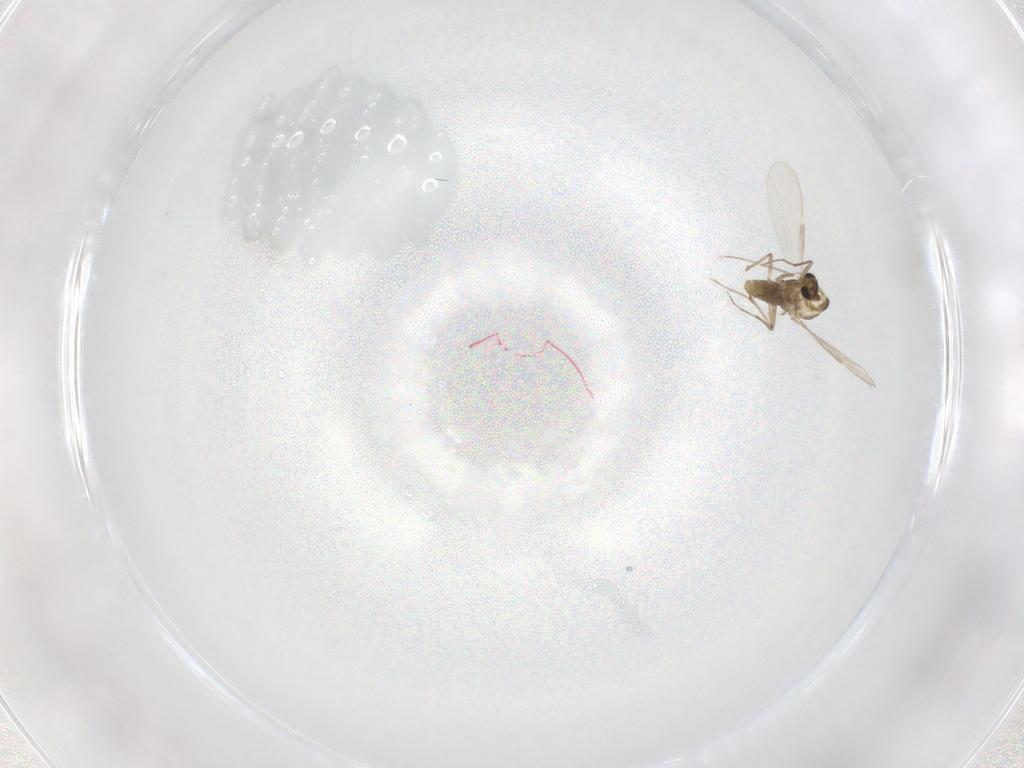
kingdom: Animalia
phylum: Arthropoda
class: Insecta
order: Diptera
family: Chironomidae
